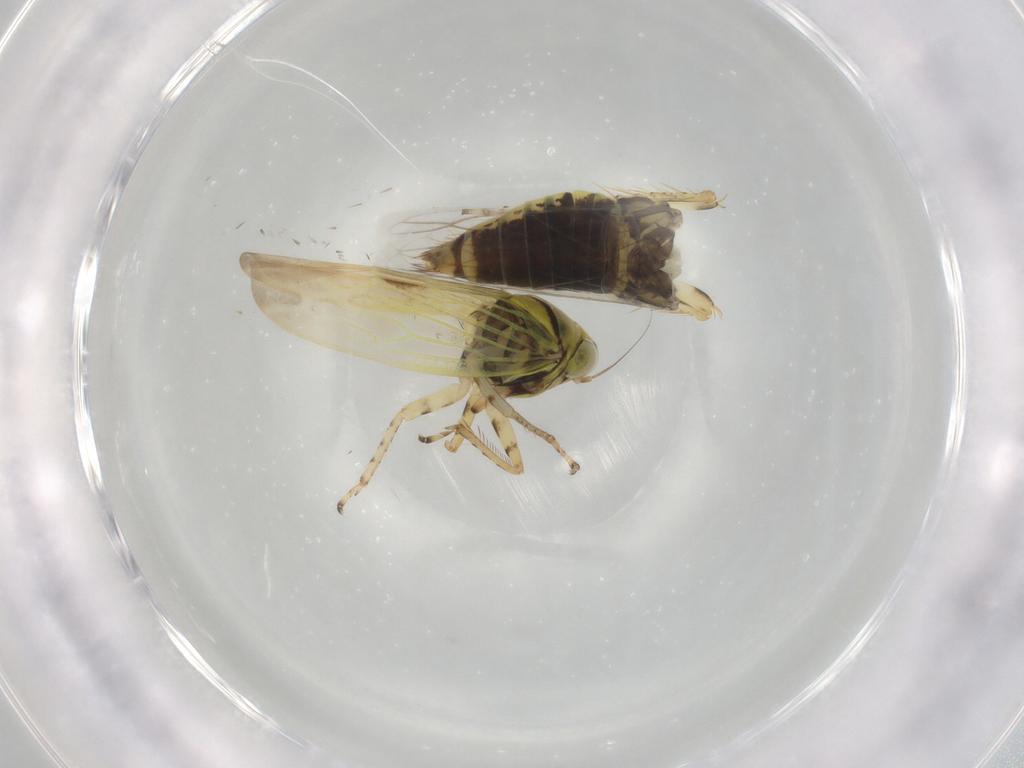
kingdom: Animalia
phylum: Arthropoda
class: Insecta
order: Hemiptera
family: Cicadellidae
